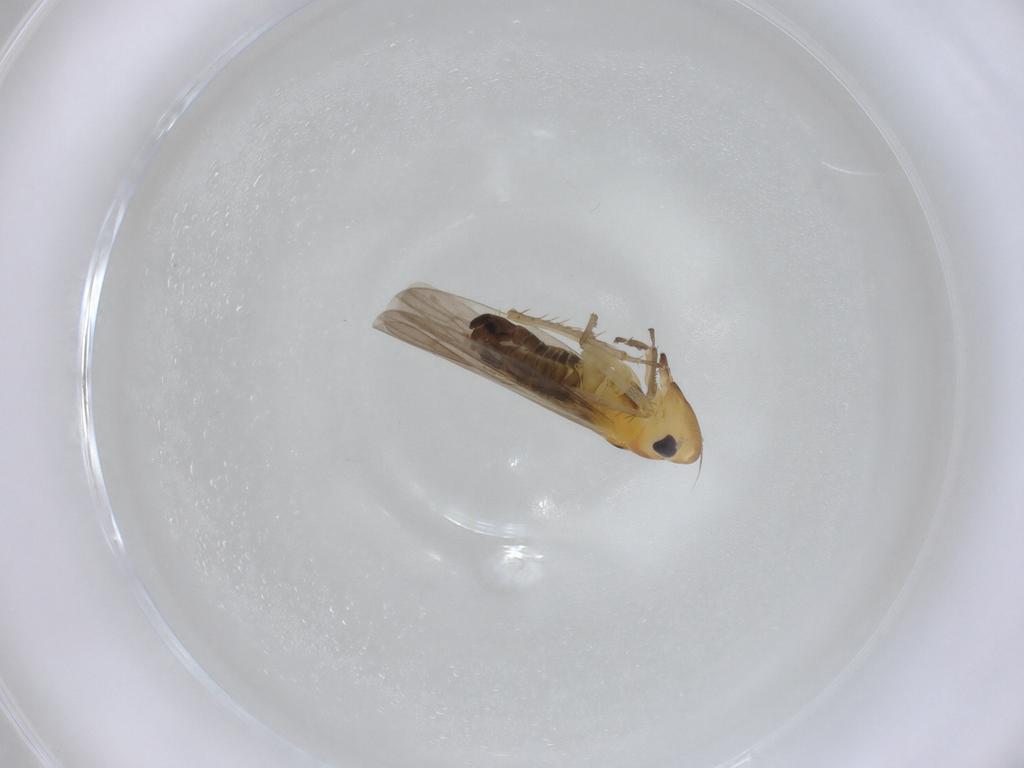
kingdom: Animalia
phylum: Arthropoda
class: Insecta
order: Hemiptera
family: Cicadellidae
